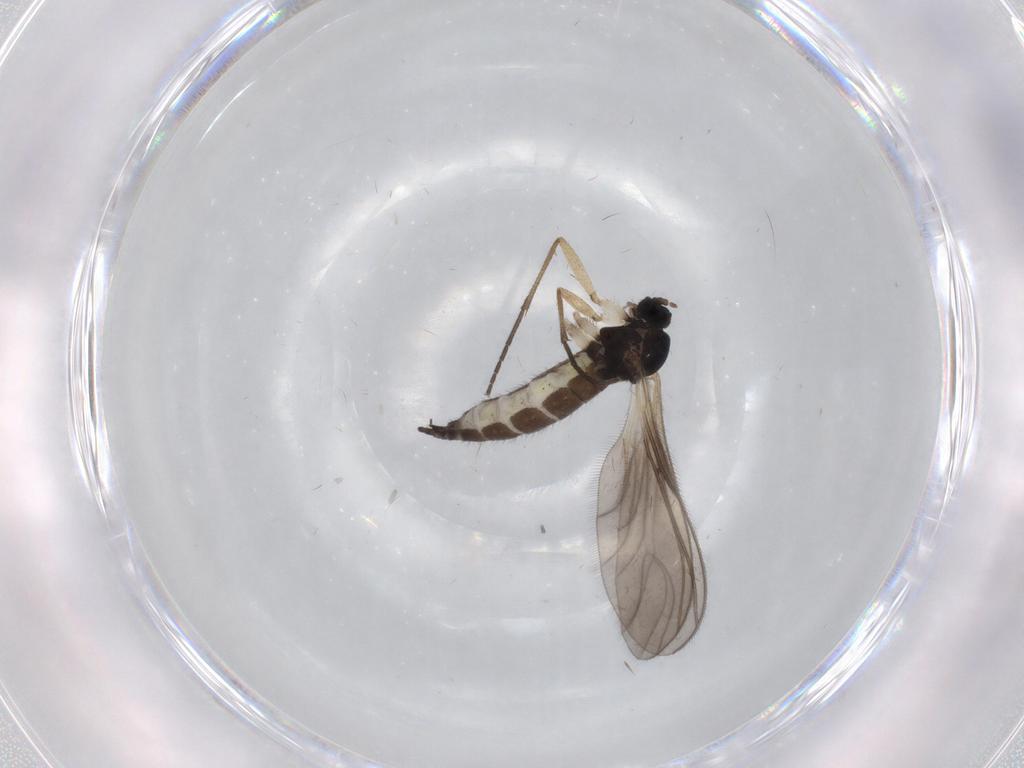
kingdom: Animalia
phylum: Arthropoda
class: Insecta
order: Diptera
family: Sciaridae
